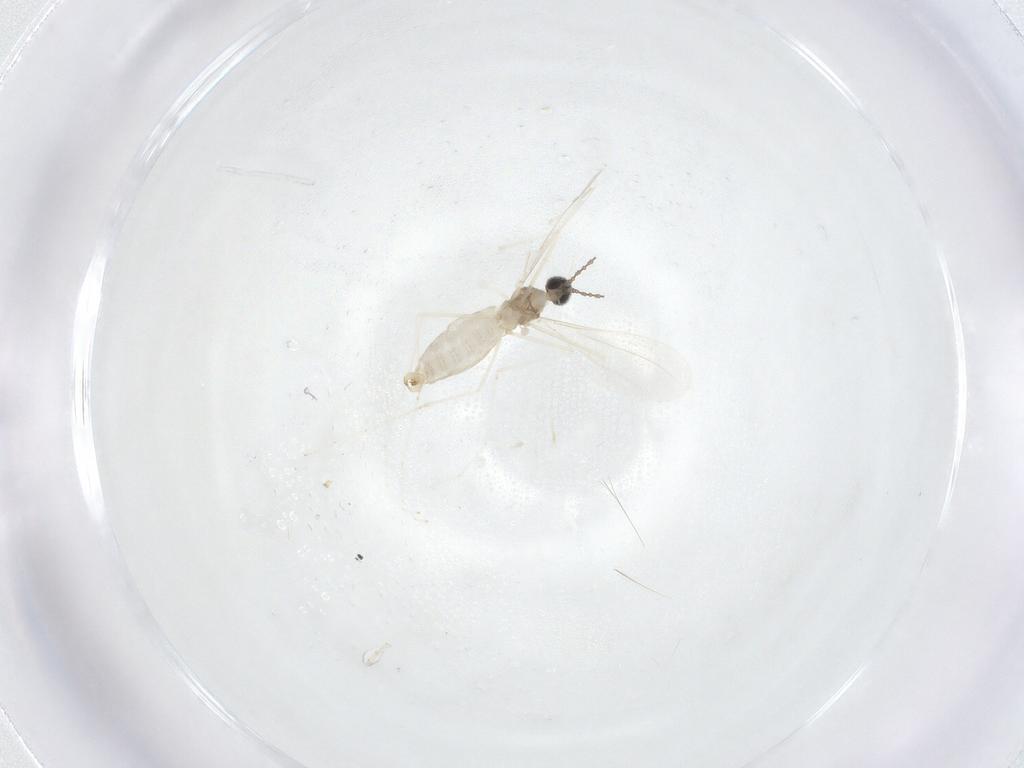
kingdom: Animalia
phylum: Arthropoda
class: Insecta
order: Diptera
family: Cecidomyiidae
